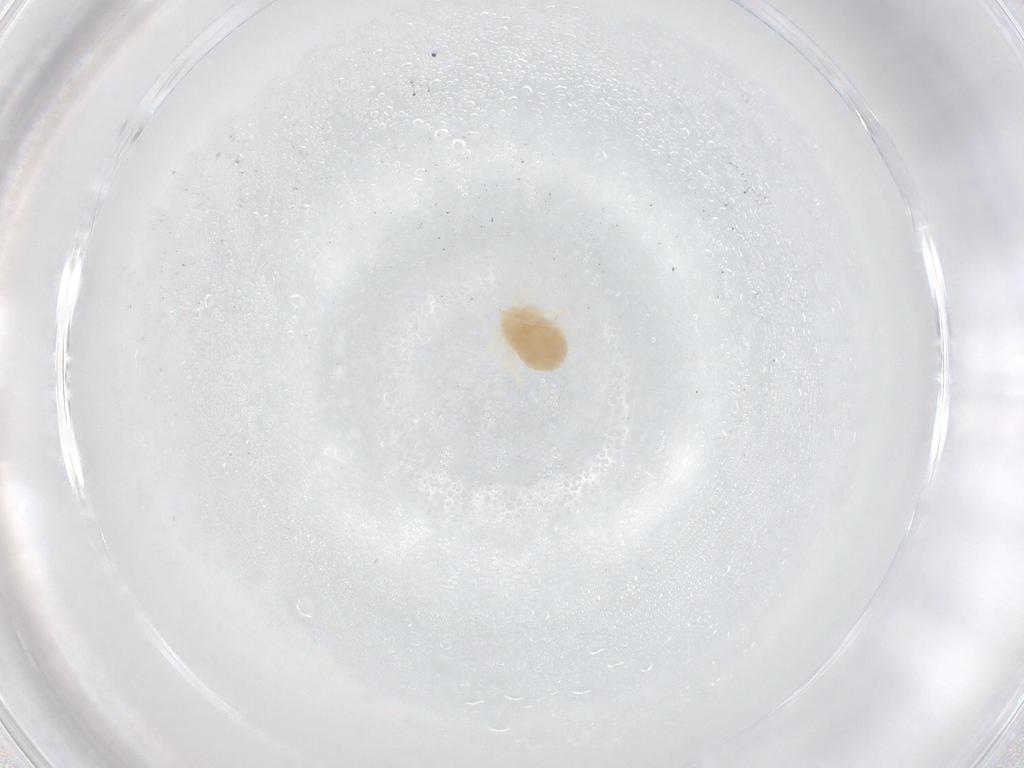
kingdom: Animalia
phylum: Arthropoda
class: Arachnida
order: Trombidiformes
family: Anystidae
